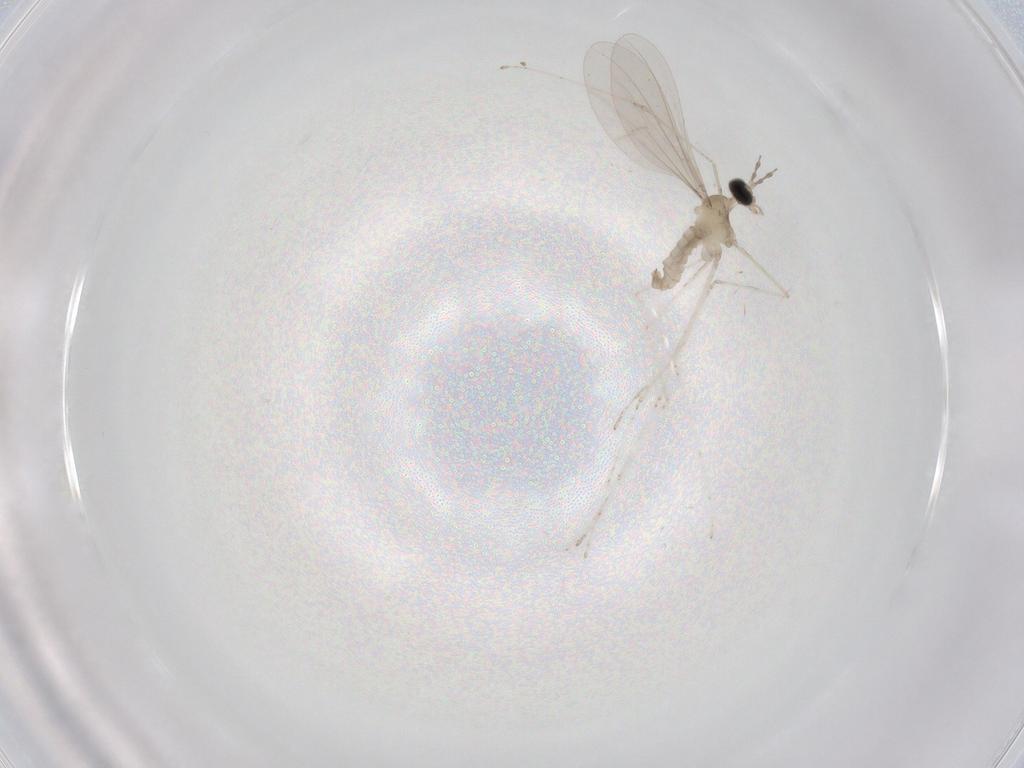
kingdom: Animalia
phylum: Arthropoda
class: Insecta
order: Diptera
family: Cecidomyiidae
